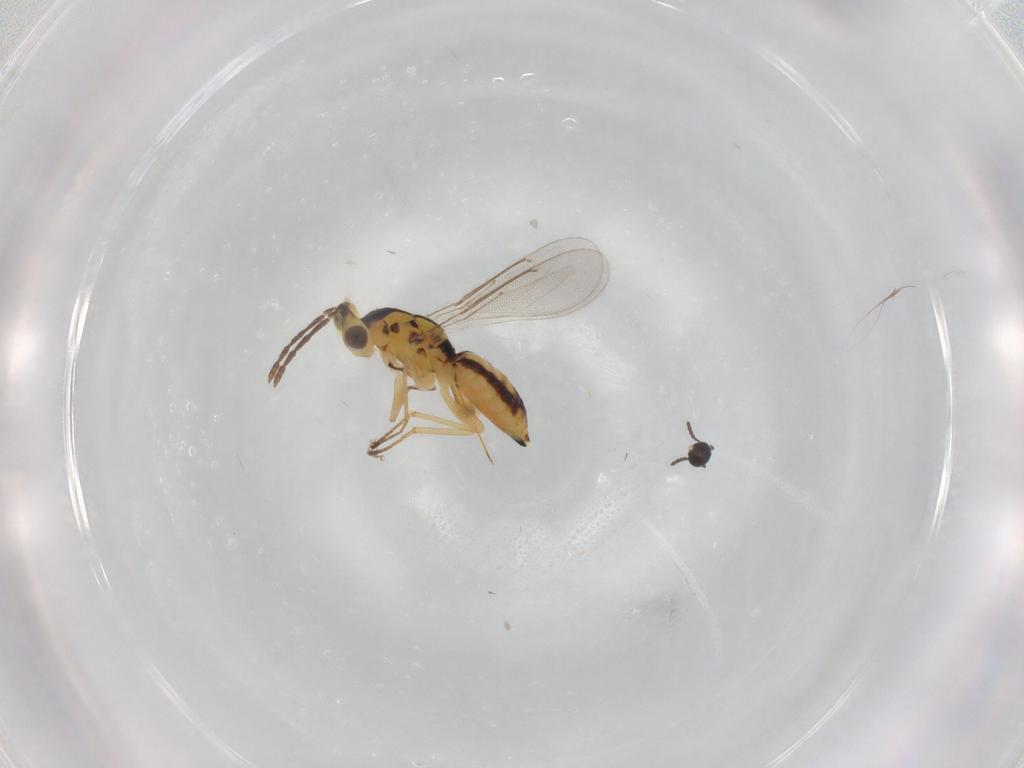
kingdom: Animalia
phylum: Arthropoda
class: Insecta
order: Hymenoptera
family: Eulophidae
